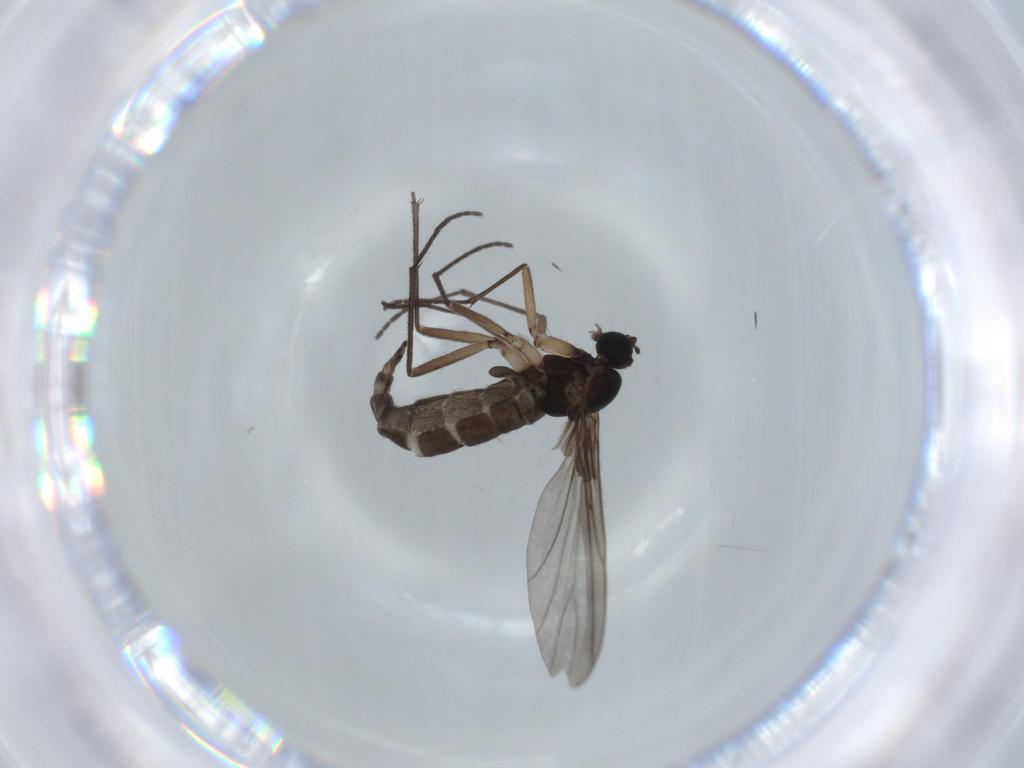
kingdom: Animalia
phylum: Arthropoda
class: Insecta
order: Diptera
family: Sciaridae
